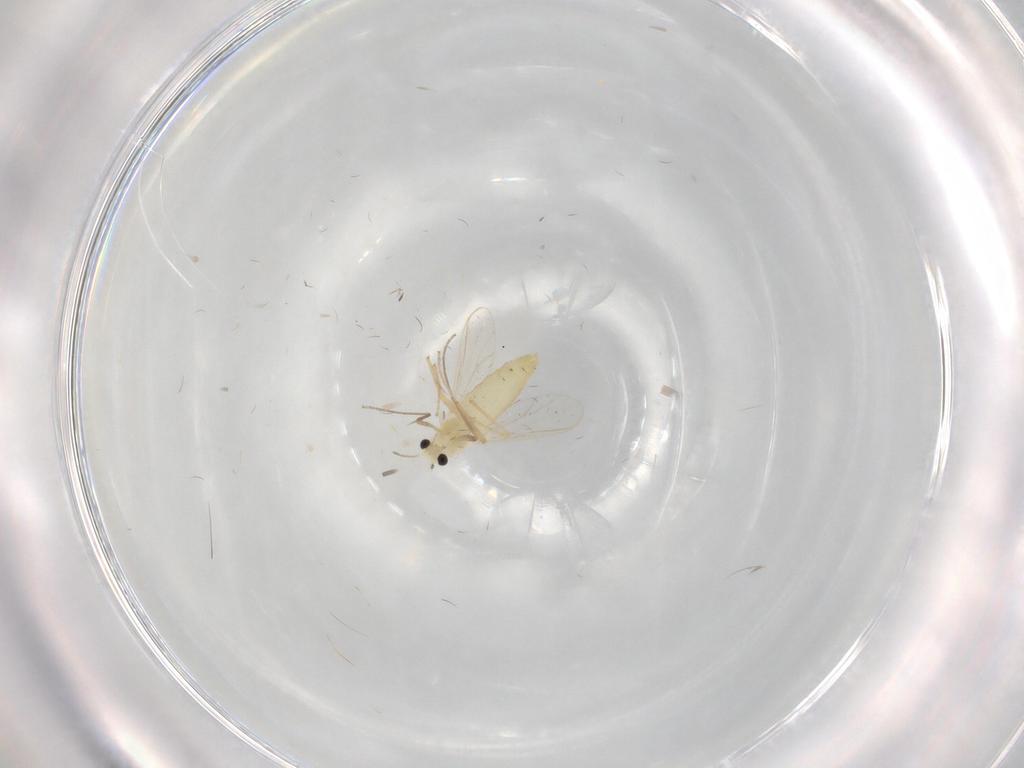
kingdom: Animalia
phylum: Arthropoda
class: Insecta
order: Diptera
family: Chironomidae
